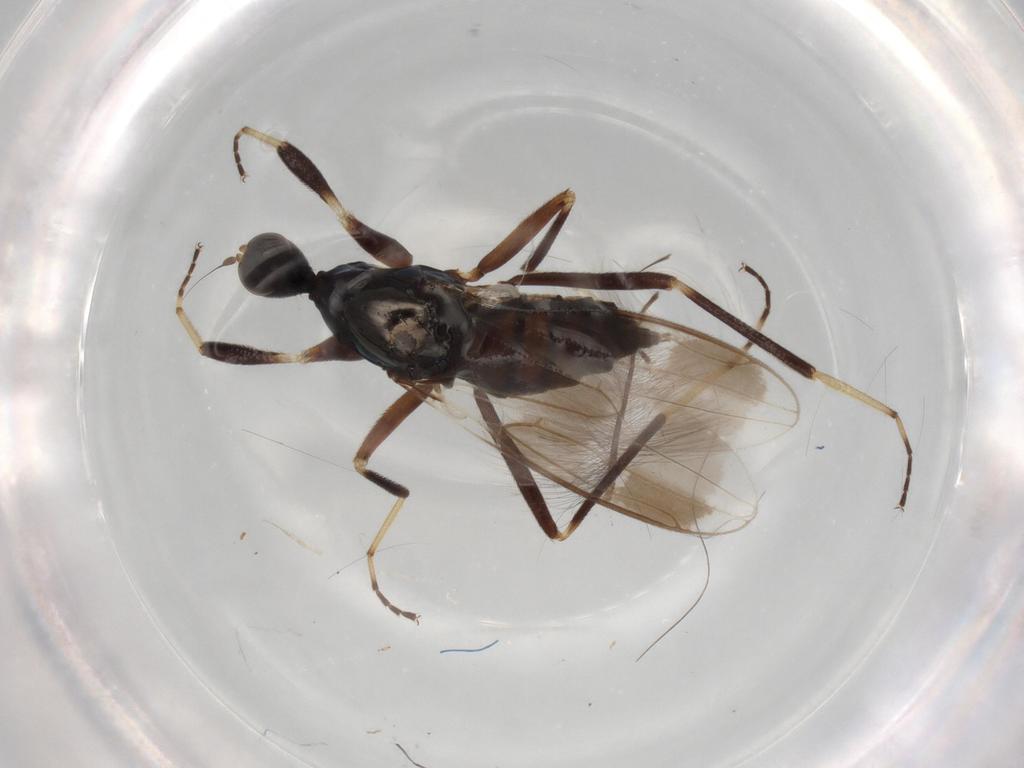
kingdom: Animalia
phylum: Arthropoda
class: Insecta
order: Diptera
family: Hybotidae
